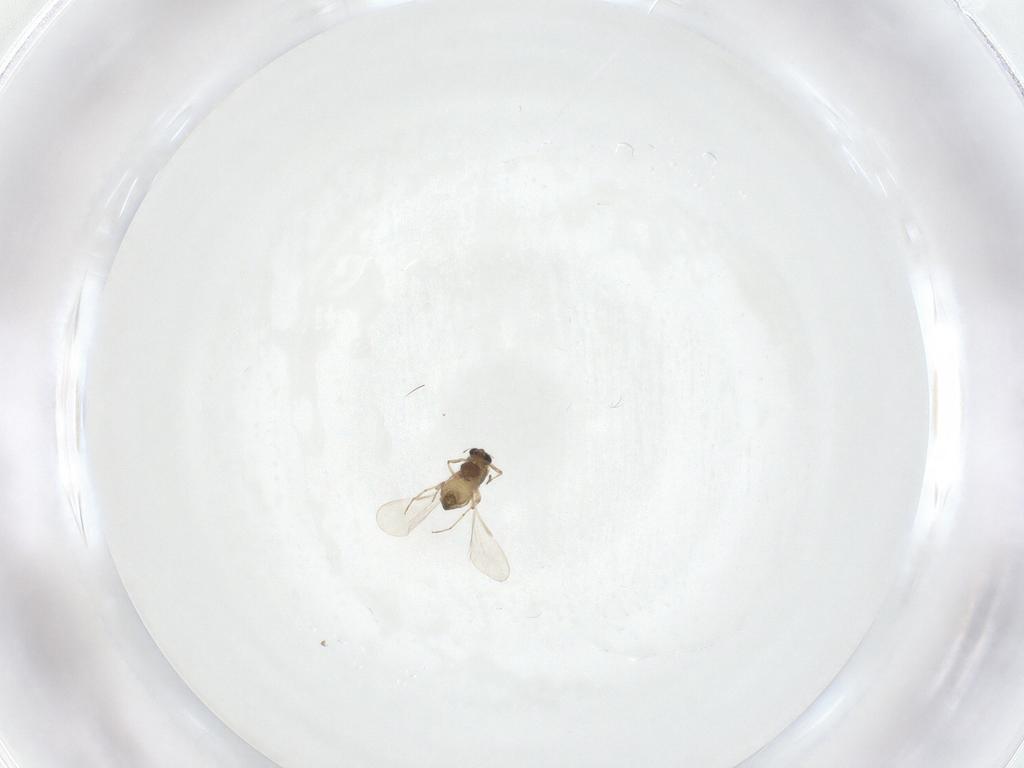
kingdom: Animalia
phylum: Arthropoda
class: Insecta
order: Diptera
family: Chironomidae
